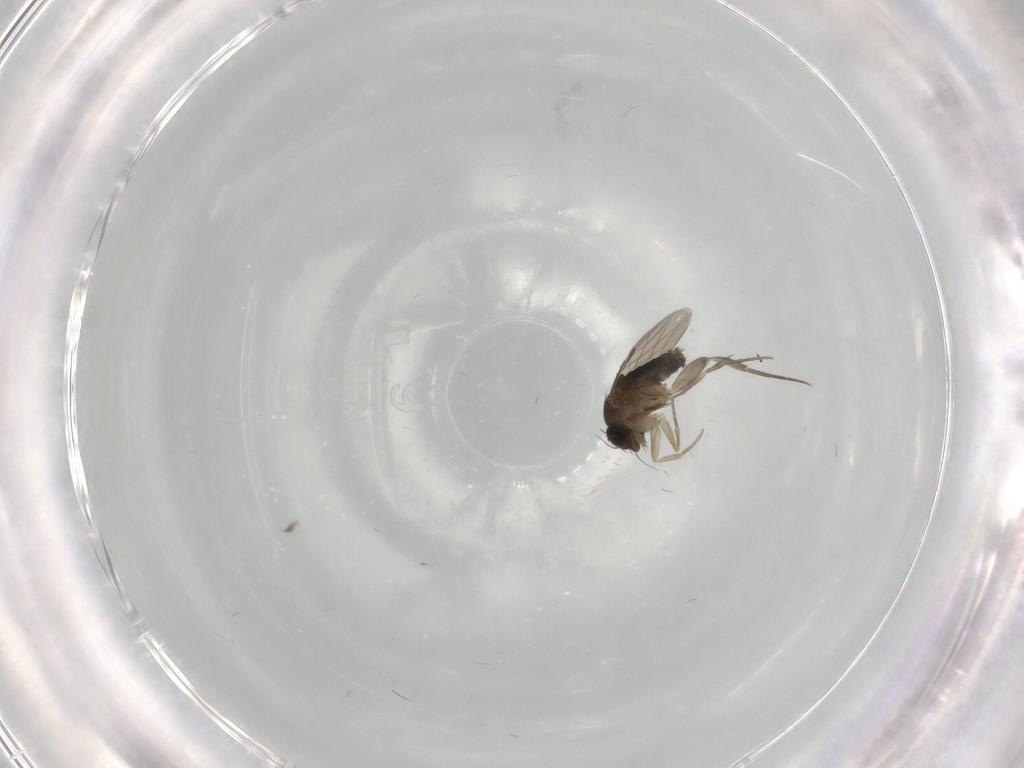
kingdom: Animalia
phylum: Arthropoda
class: Insecta
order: Diptera
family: Phoridae
